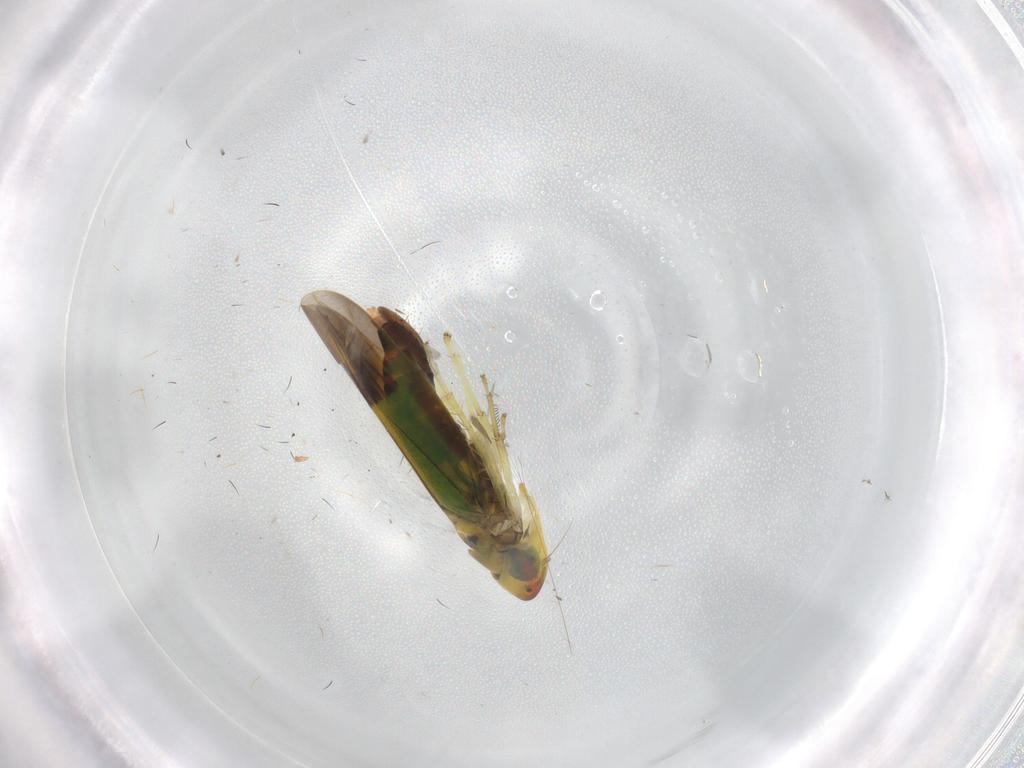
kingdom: Animalia
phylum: Arthropoda
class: Insecta
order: Hemiptera
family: Cicadellidae
